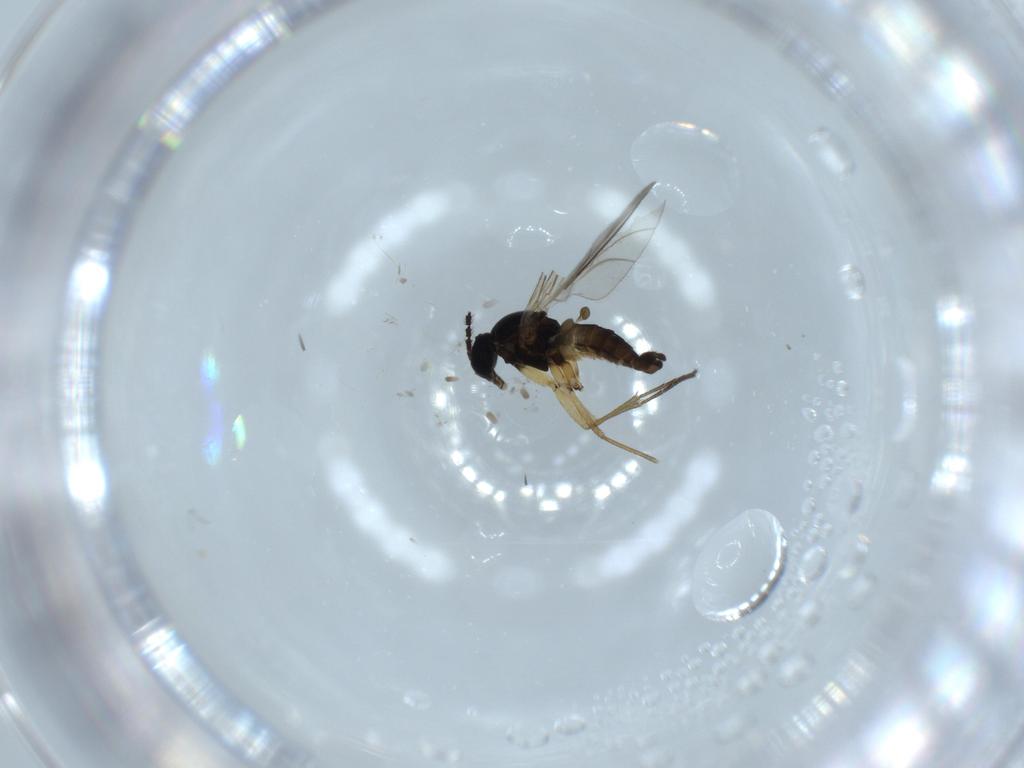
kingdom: Animalia
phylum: Arthropoda
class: Insecta
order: Diptera
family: Sciaridae
